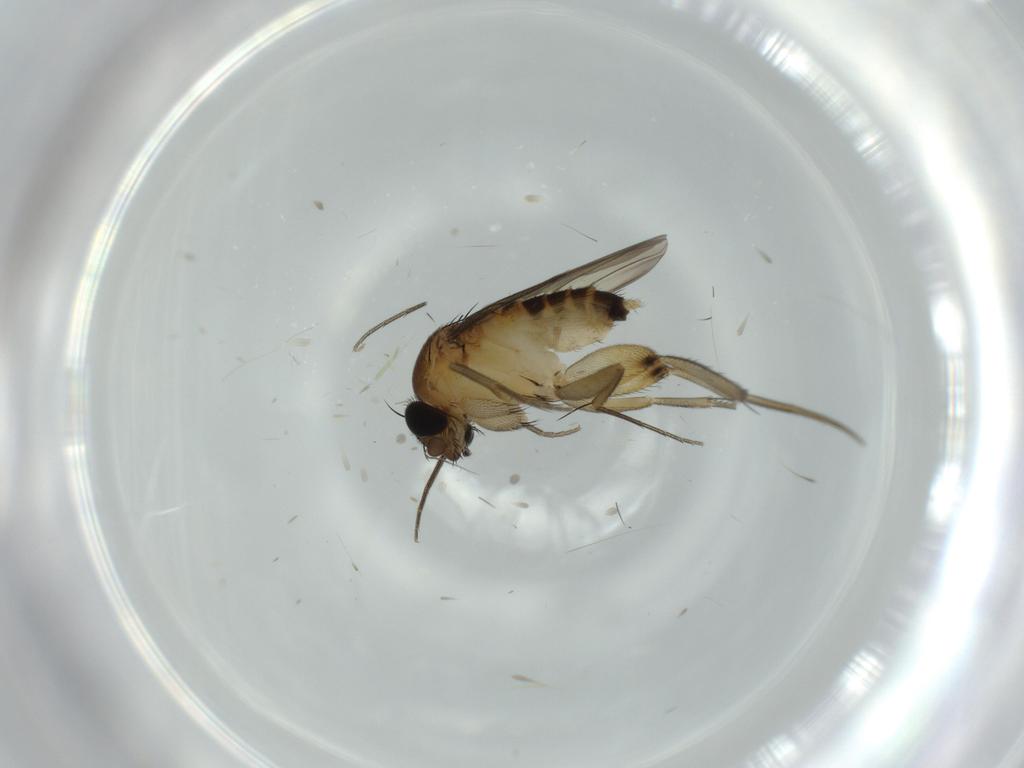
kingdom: Animalia
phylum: Arthropoda
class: Insecta
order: Diptera
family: Phoridae
